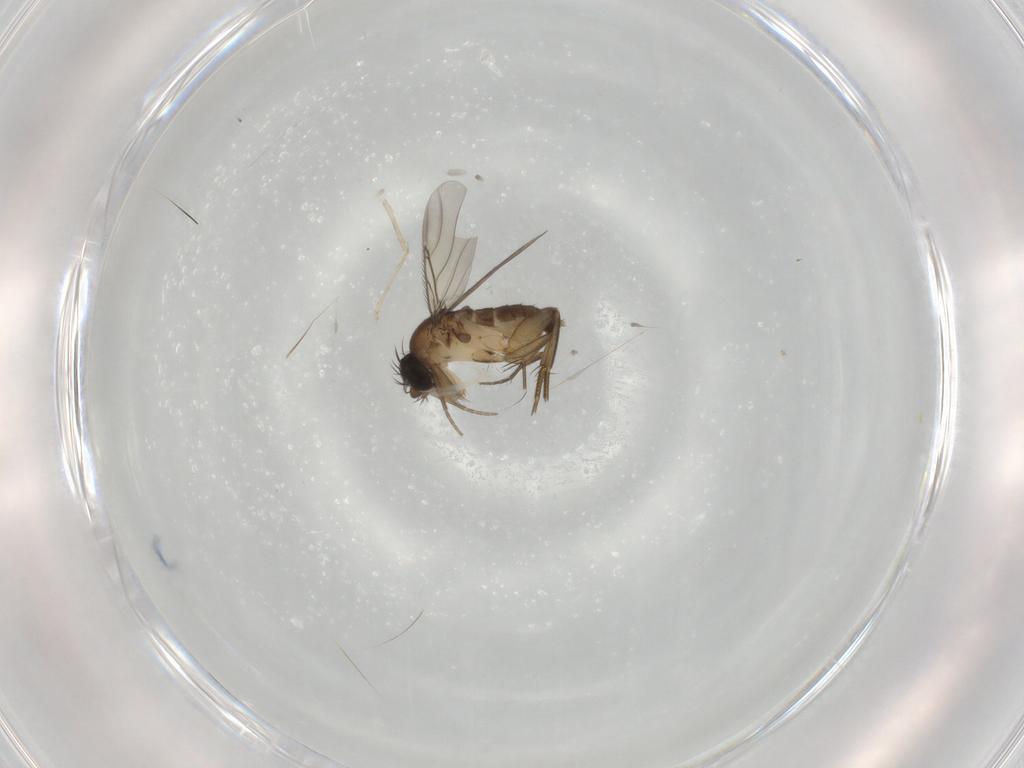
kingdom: Animalia
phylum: Arthropoda
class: Insecta
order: Diptera
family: Phoridae
